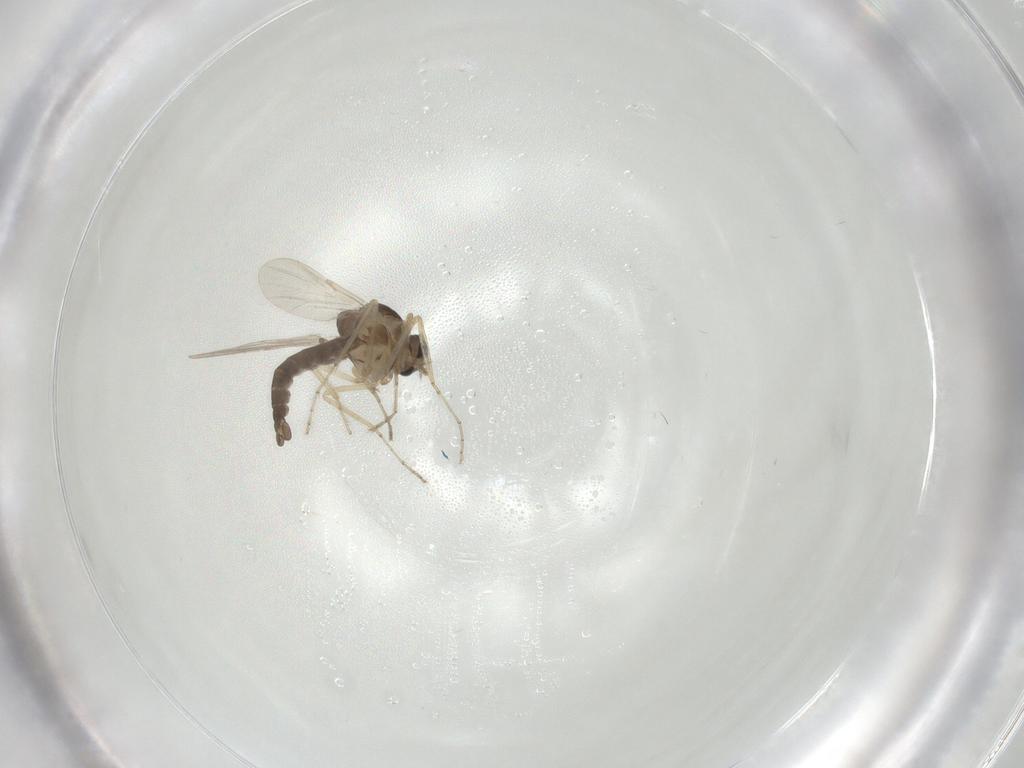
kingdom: Animalia
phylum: Arthropoda
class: Insecta
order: Diptera
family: Ceratopogonidae
